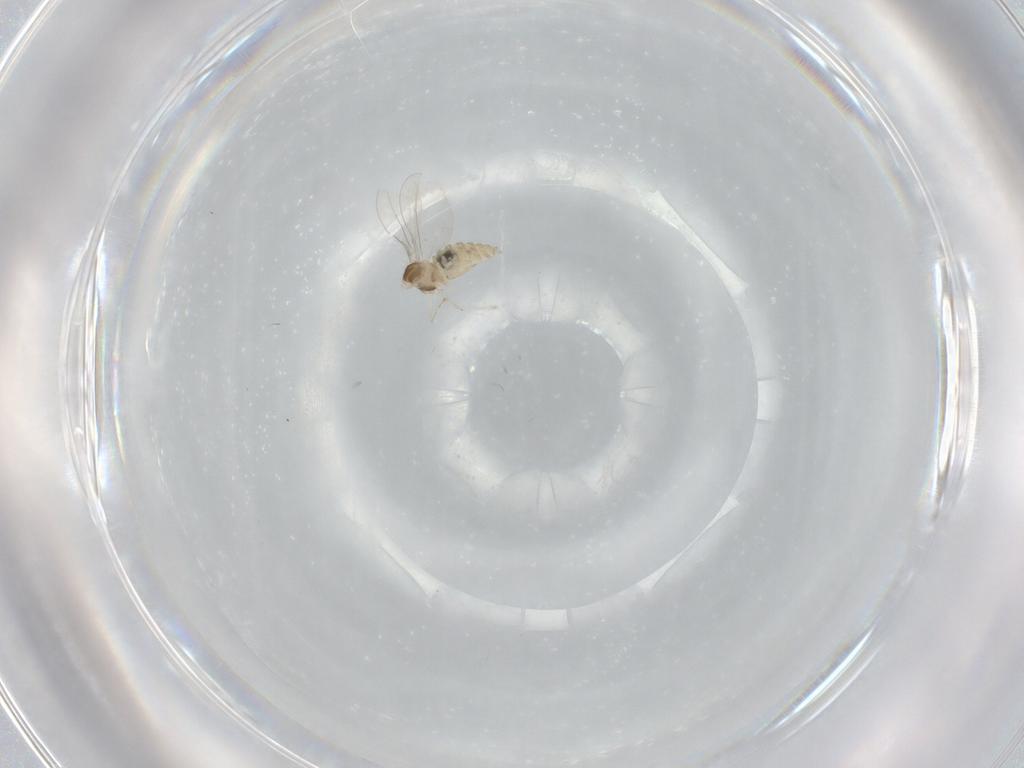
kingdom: Animalia
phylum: Arthropoda
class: Insecta
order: Diptera
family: Cecidomyiidae
